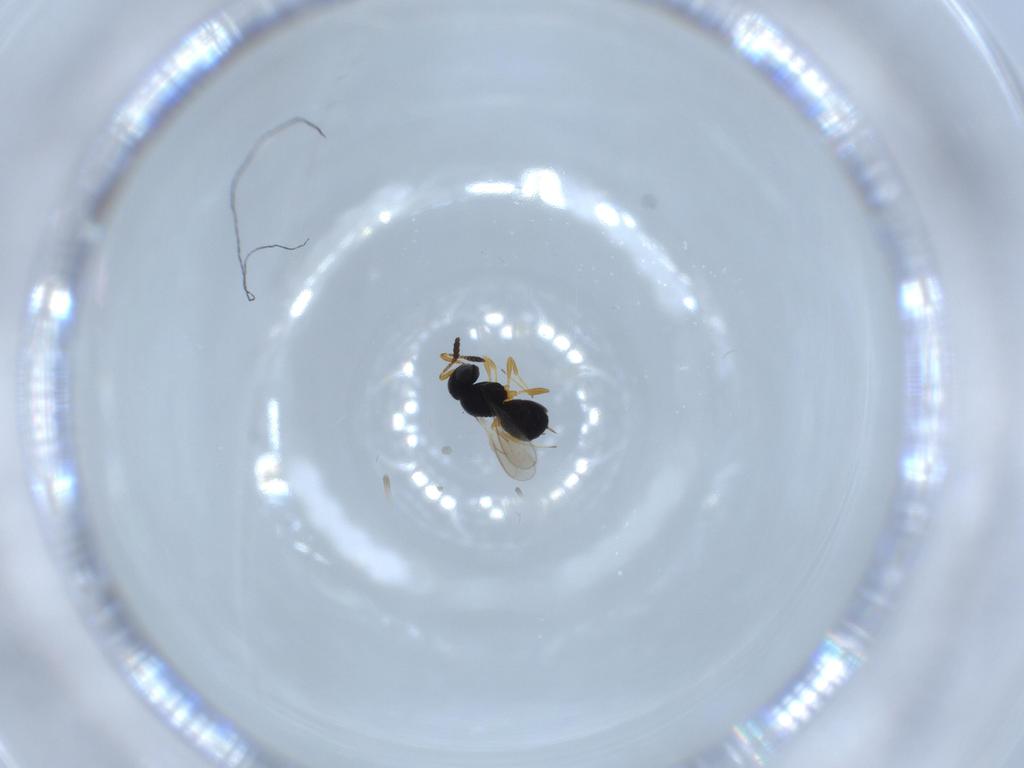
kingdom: Animalia
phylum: Arthropoda
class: Insecta
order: Hymenoptera
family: Scelionidae
